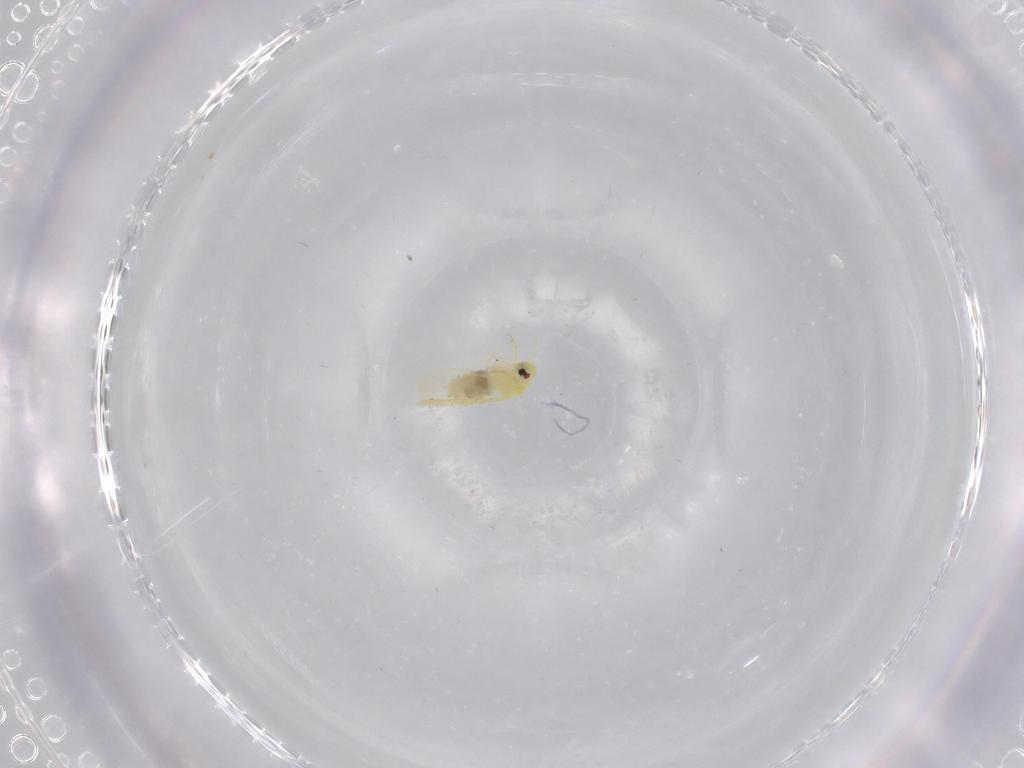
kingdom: Animalia
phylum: Arthropoda
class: Insecta
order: Hemiptera
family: Aleyrodidae
